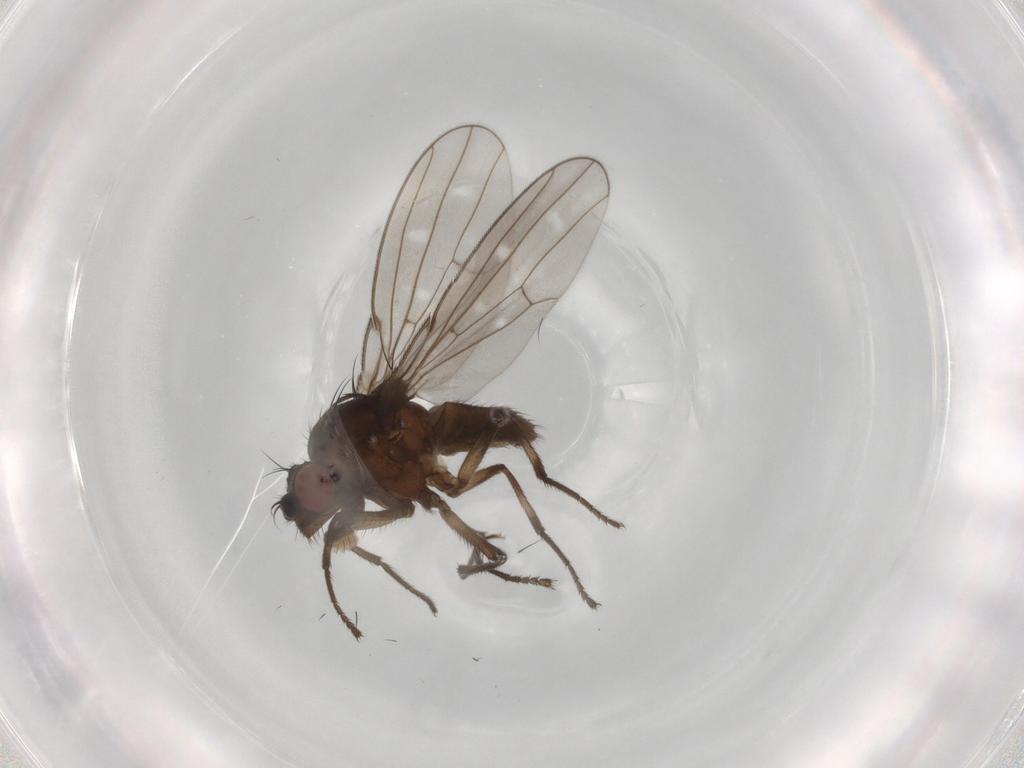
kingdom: Animalia
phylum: Arthropoda
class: Insecta
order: Diptera
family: Ephydridae
